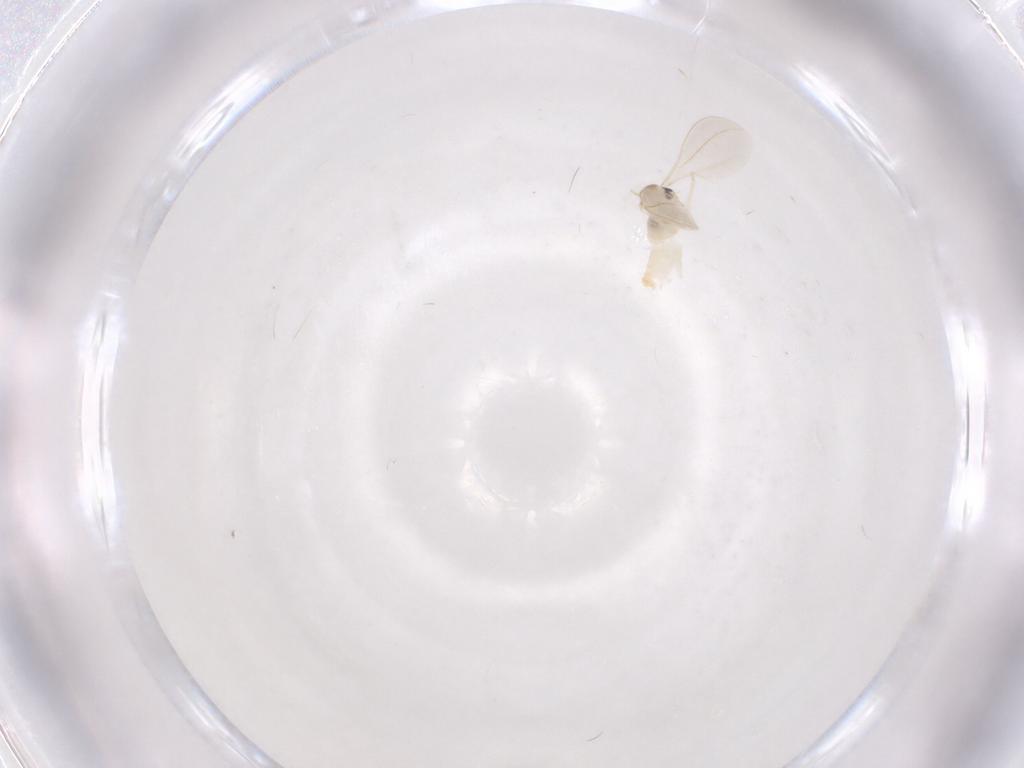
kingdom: Animalia
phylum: Arthropoda
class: Insecta
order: Diptera
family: Cecidomyiidae
